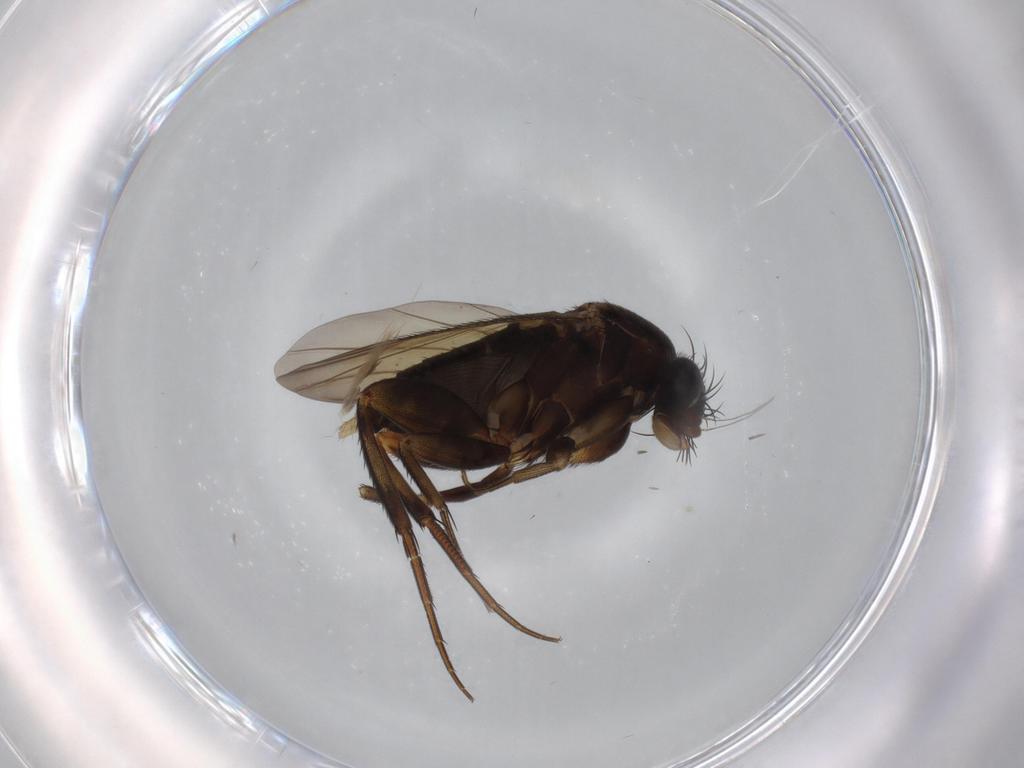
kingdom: Animalia
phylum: Arthropoda
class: Insecta
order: Diptera
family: Phoridae
